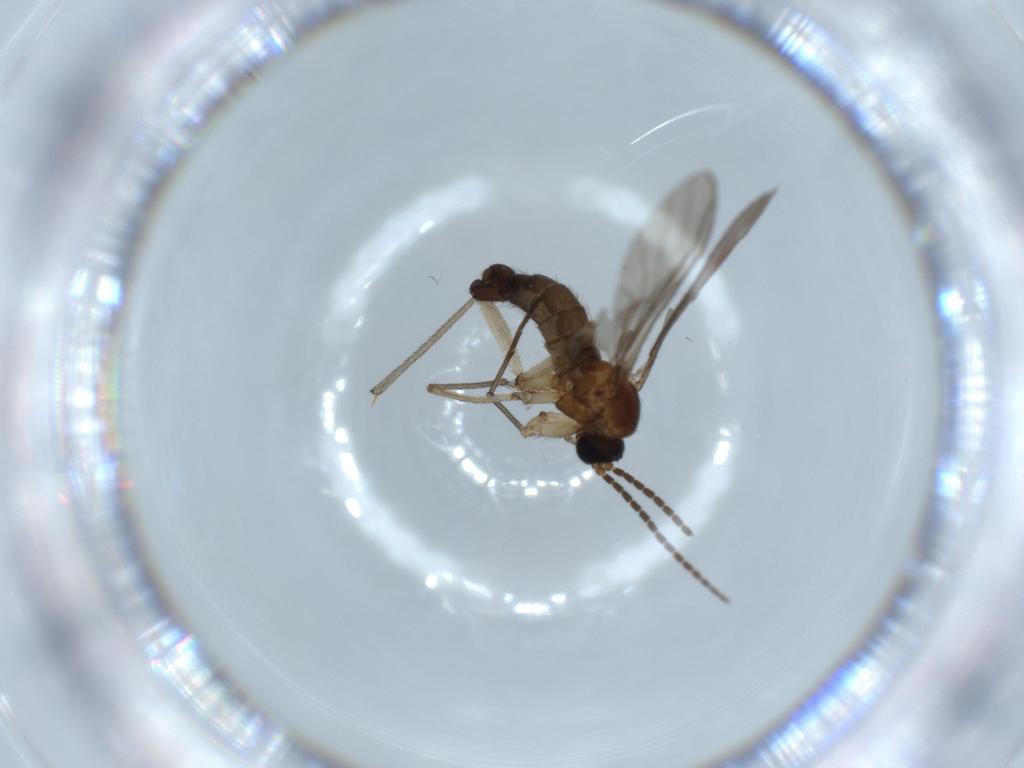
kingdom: Animalia
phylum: Arthropoda
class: Insecta
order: Diptera
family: Sciaridae
